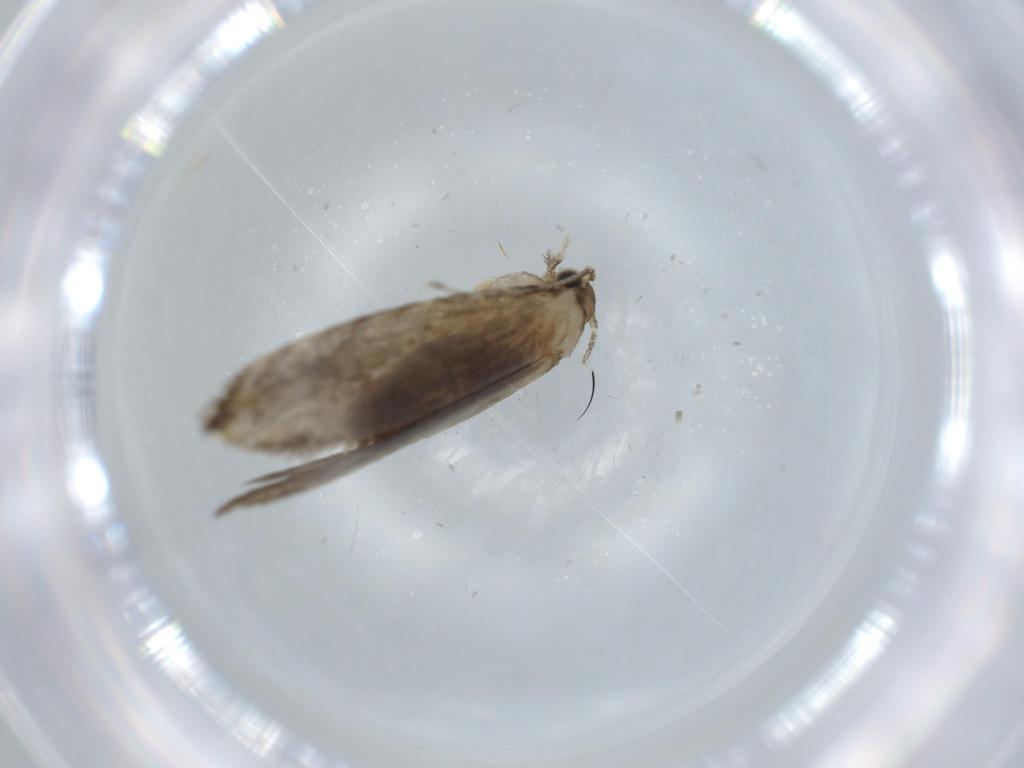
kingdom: Animalia
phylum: Arthropoda
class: Insecta
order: Lepidoptera
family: Tineidae
